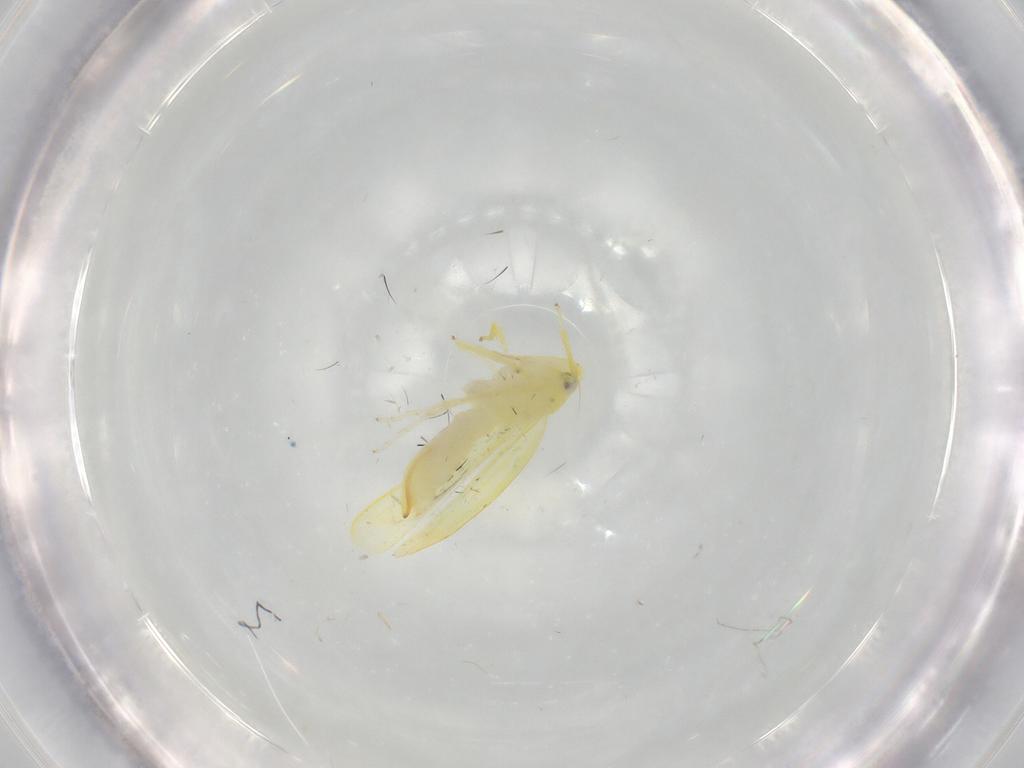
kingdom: Animalia
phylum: Arthropoda
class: Insecta
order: Hemiptera
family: Cicadellidae
